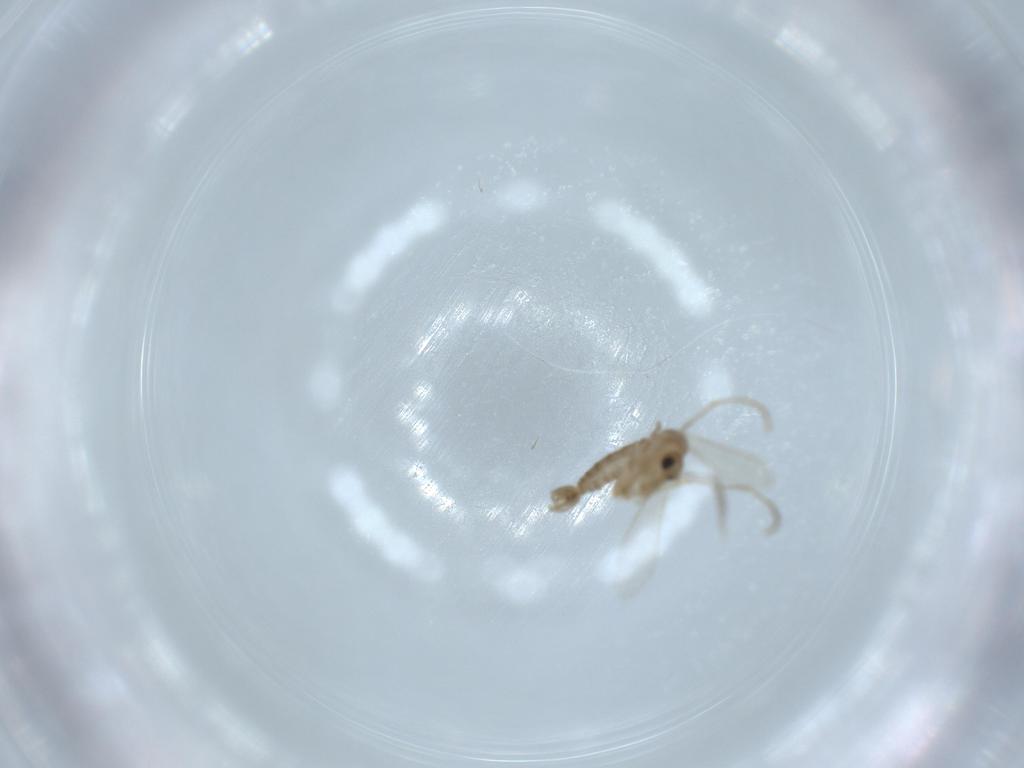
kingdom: Animalia
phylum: Arthropoda
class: Insecta
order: Diptera
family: Psychodidae
